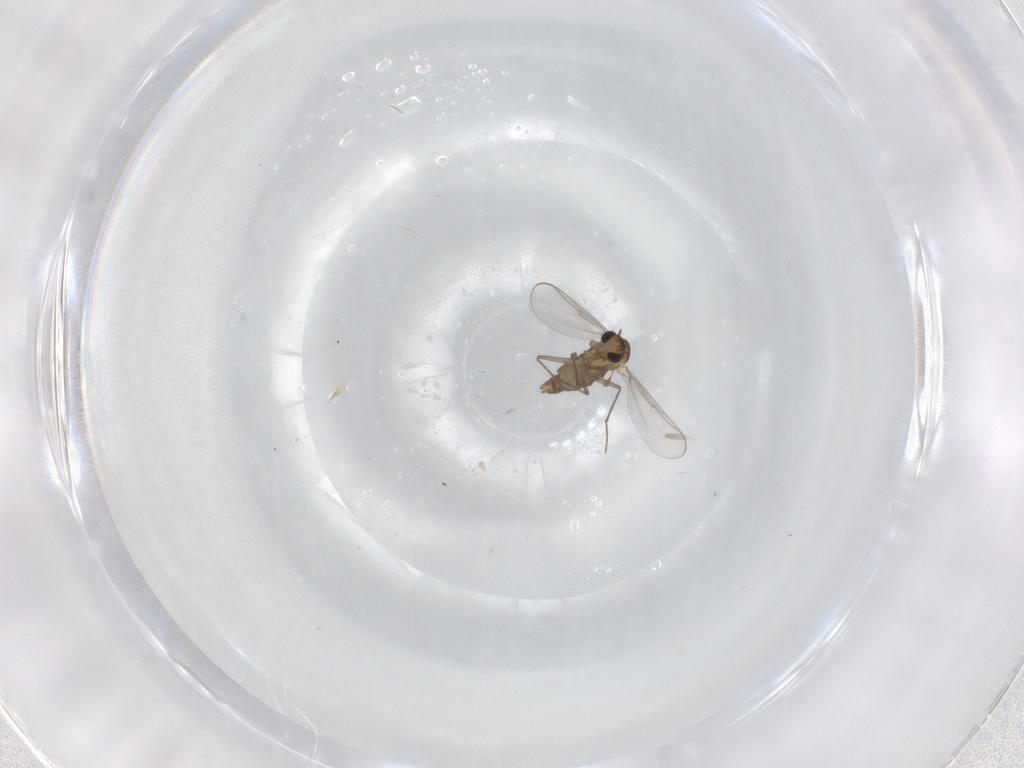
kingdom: Animalia
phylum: Arthropoda
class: Insecta
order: Diptera
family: Chironomidae
